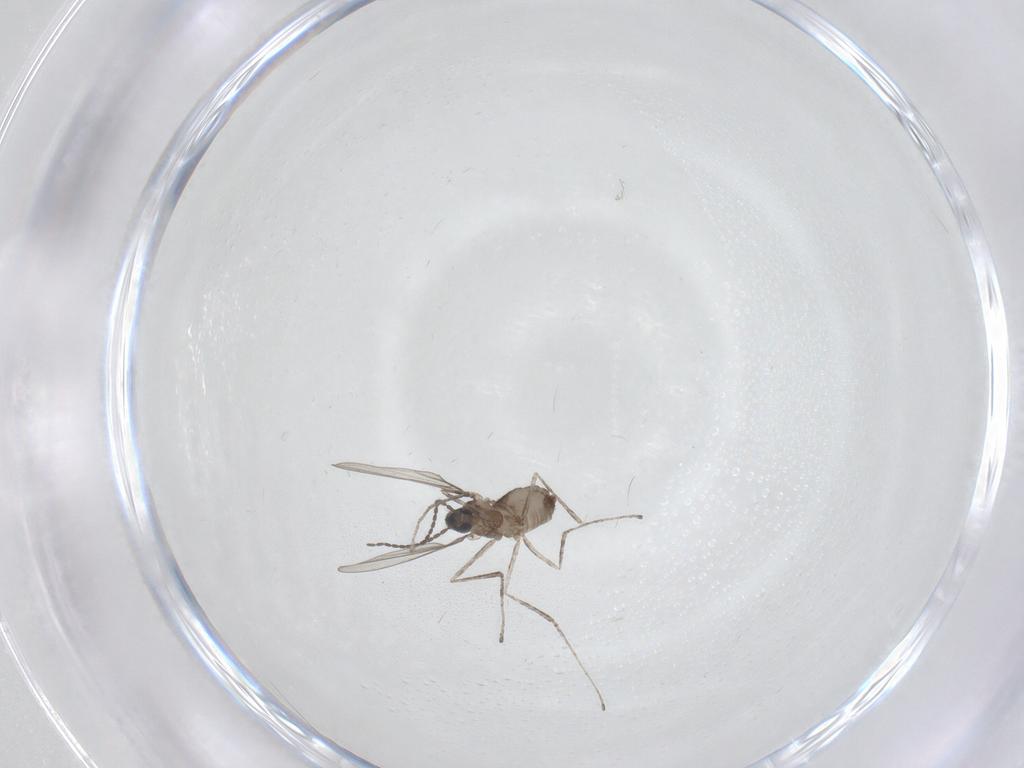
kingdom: Animalia
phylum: Arthropoda
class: Insecta
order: Diptera
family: Cecidomyiidae
